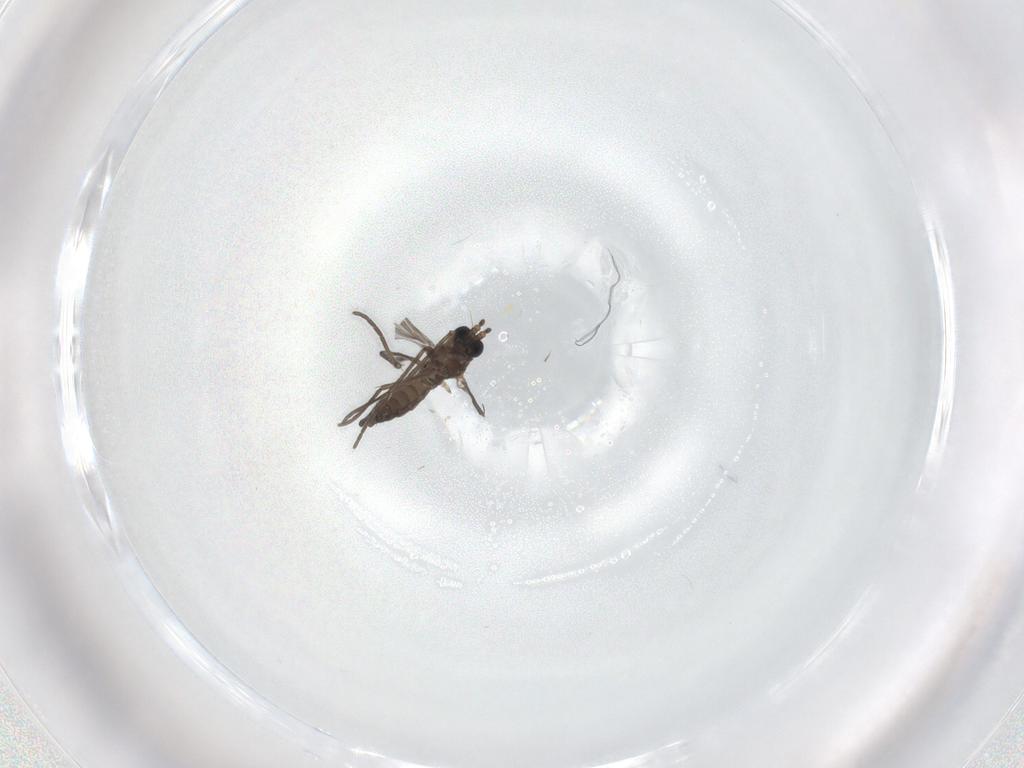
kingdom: Animalia
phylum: Arthropoda
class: Insecta
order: Diptera
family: Sciaridae
